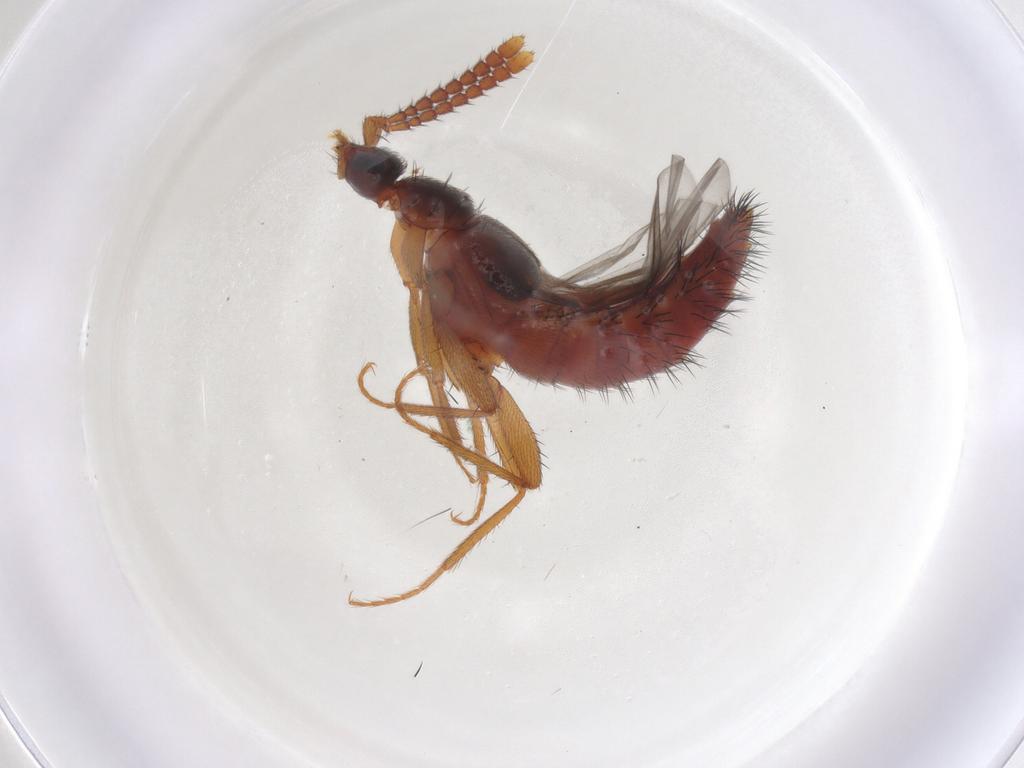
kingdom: Animalia
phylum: Arthropoda
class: Insecta
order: Coleoptera
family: Staphylinidae
